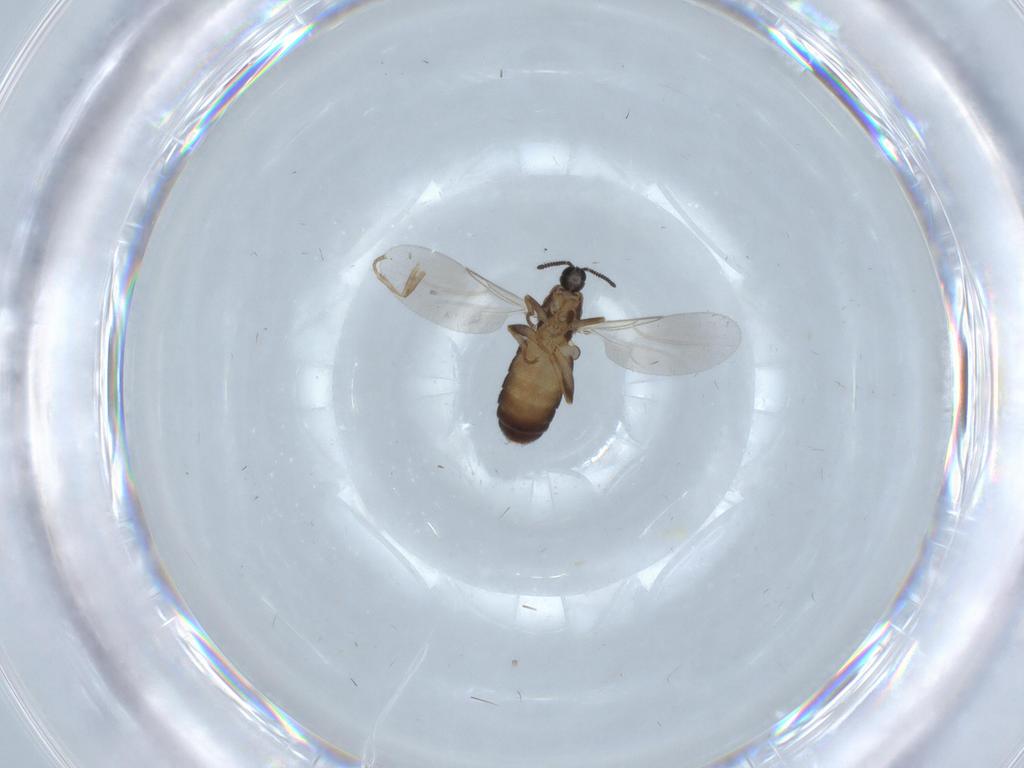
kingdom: Animalia
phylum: Arthropoda
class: Insecta
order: Diptera
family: Scatopsidae
